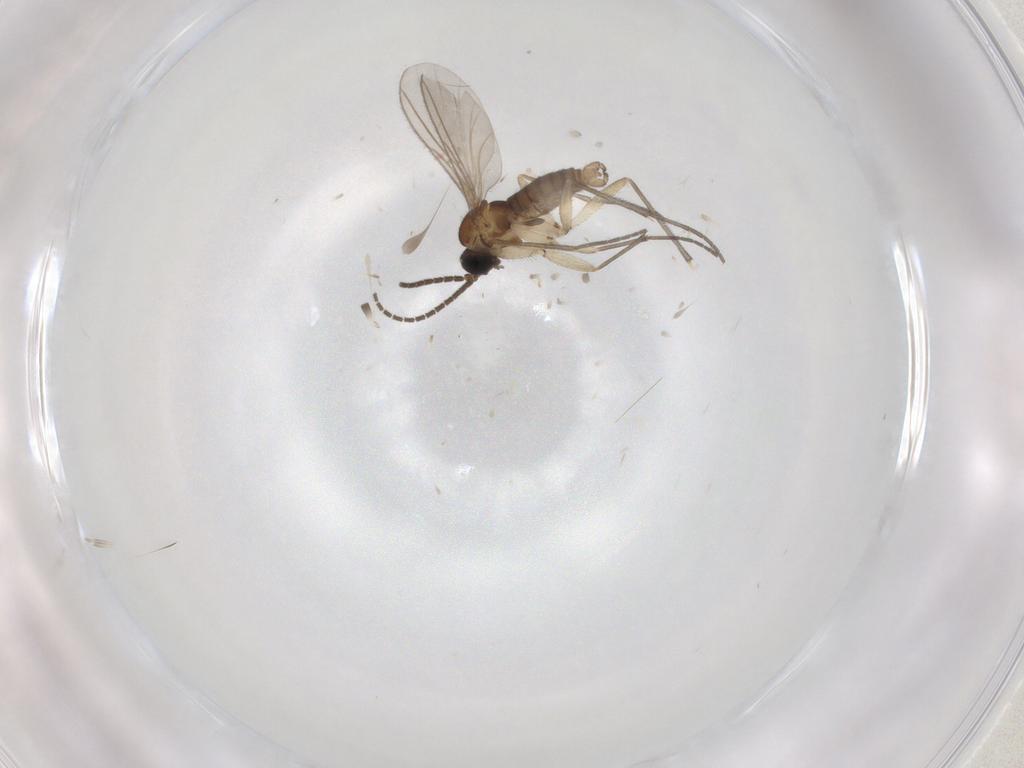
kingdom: Animalia
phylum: Arthropoda
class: Insecta
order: Diptera
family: Sciaridae
